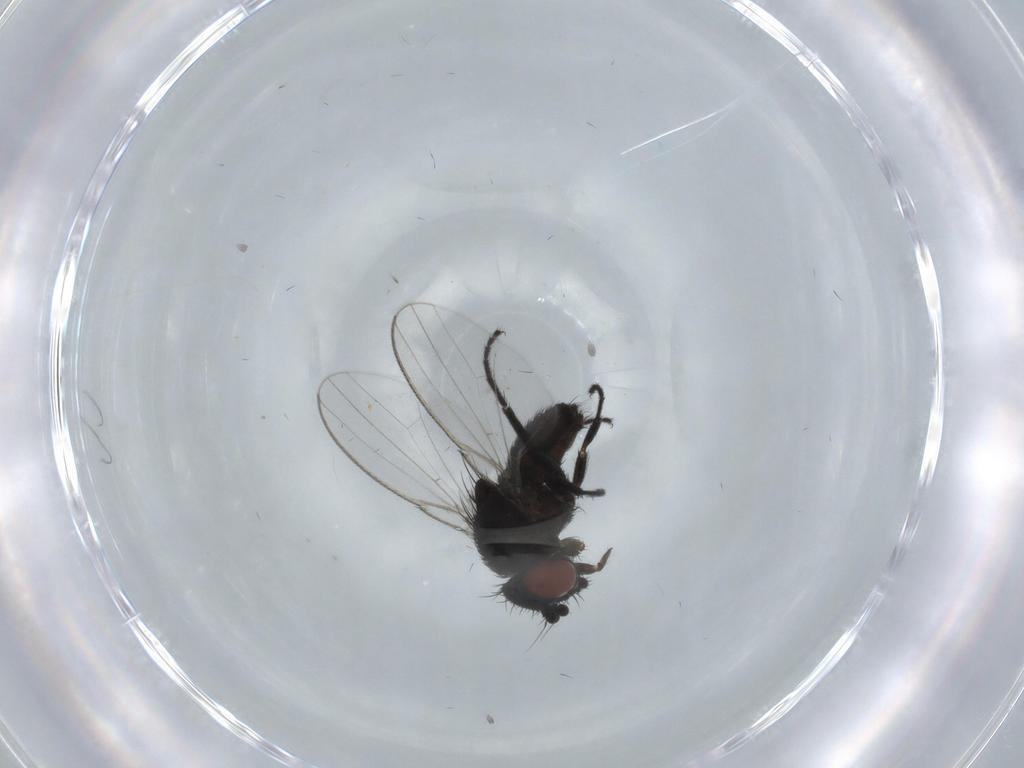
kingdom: Animalia
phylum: Arthropoda
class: Insecta
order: Diptera
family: Milichiidae
